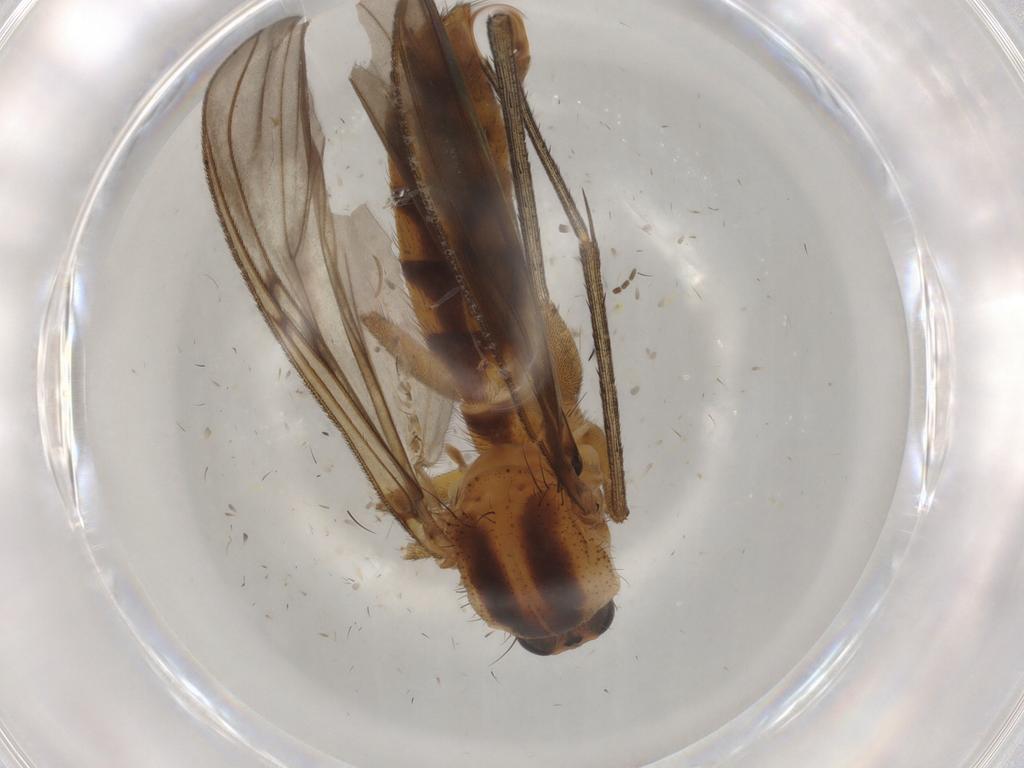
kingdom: Animalia
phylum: Arthropoda
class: Insecta
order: Diptera
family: Mycetophilidae
